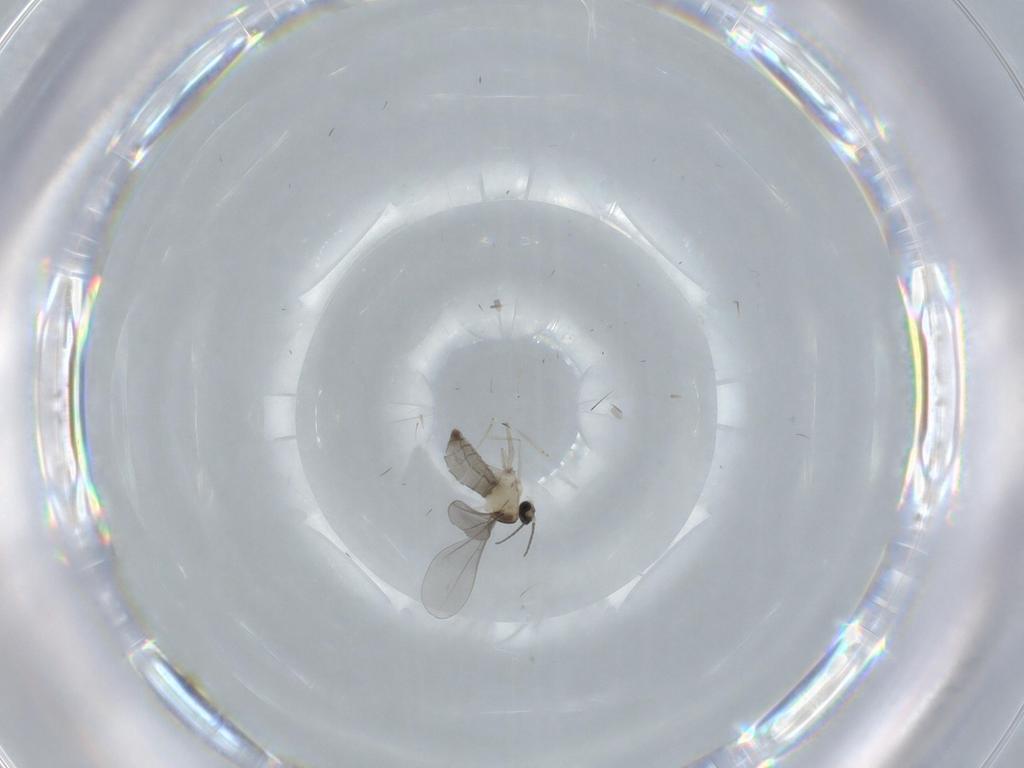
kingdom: Animalia
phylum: Arthropoda
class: Insecta
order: Diptera
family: Cecidomyiidae
